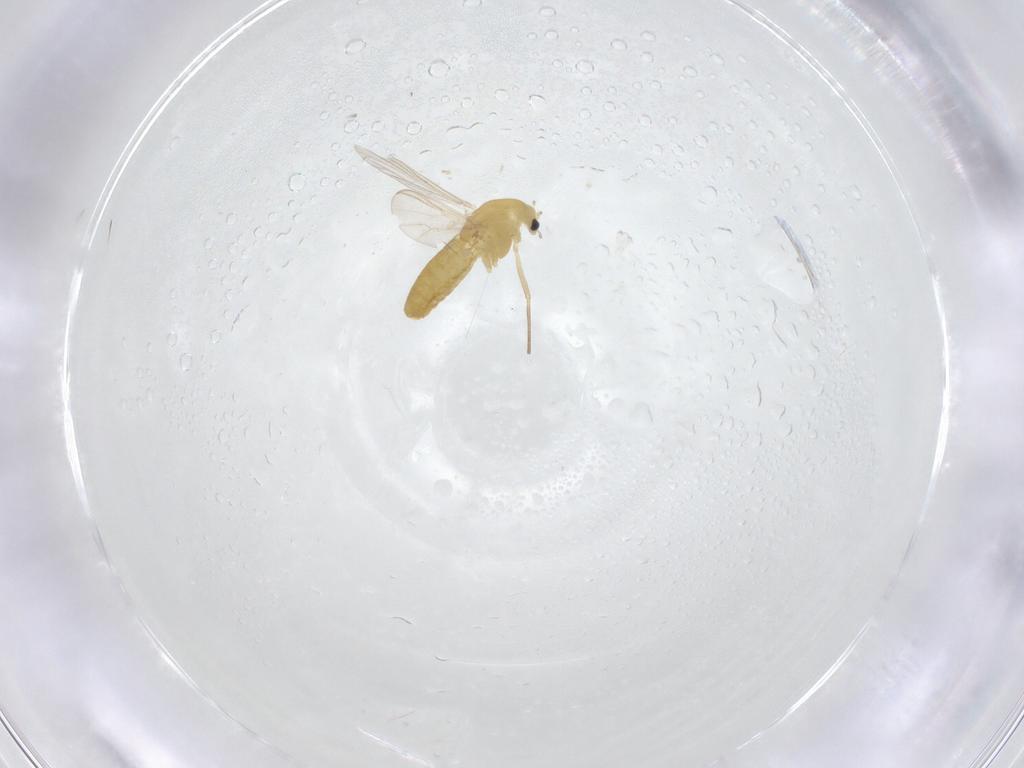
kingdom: Animalia
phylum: Arthropoda
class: Insecta
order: Diptera
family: Chironomidae
